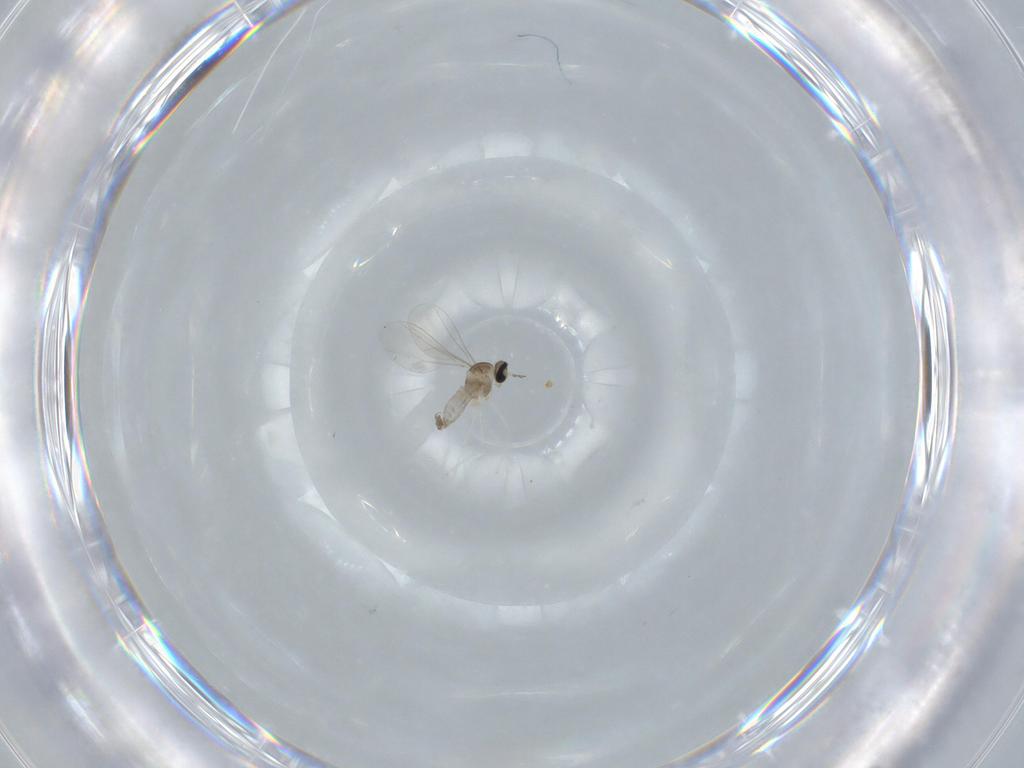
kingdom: Animalia
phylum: Arthropoda
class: Insecta
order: Diptera
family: Cecidomyiidae
